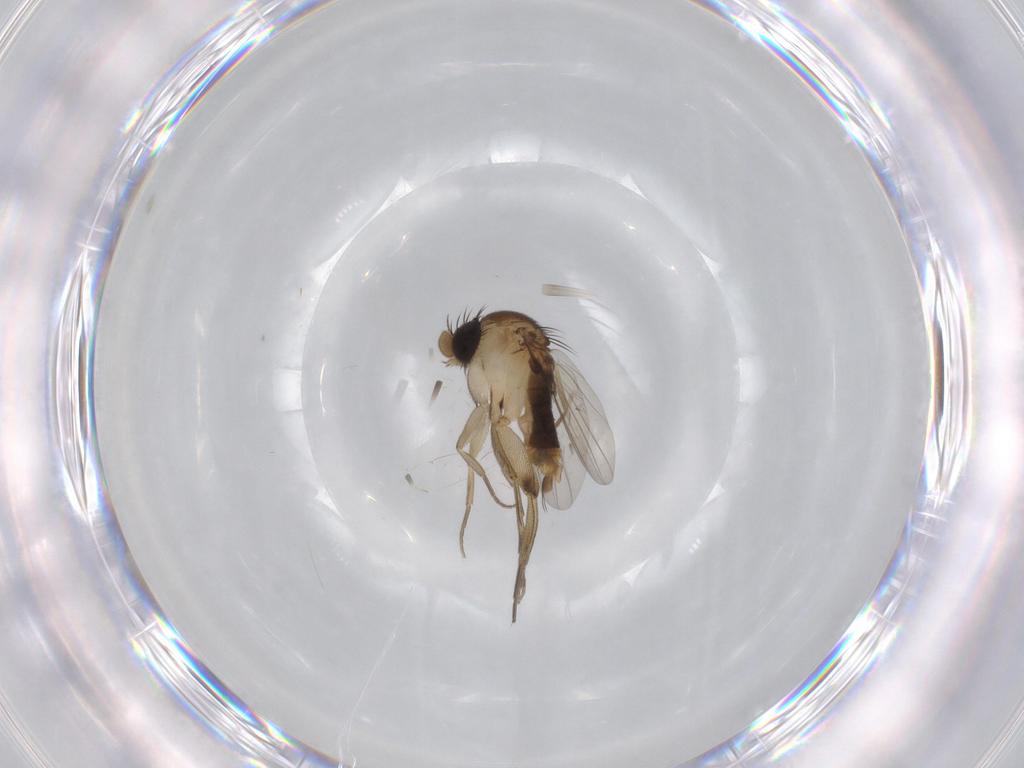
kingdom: Animalia
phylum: Arthropoda
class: Insecta
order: Diptera
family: Phoridae
